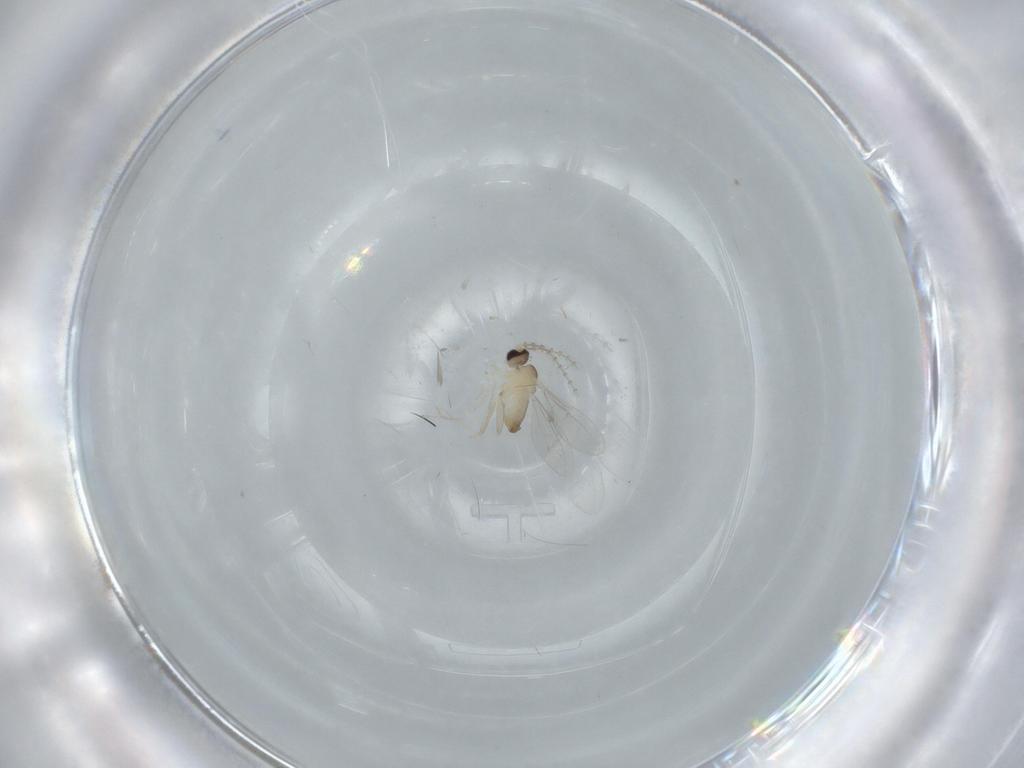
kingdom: Animalia
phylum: Arthropoda
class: Insecta
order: Diptera
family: Cecidomyiidae
